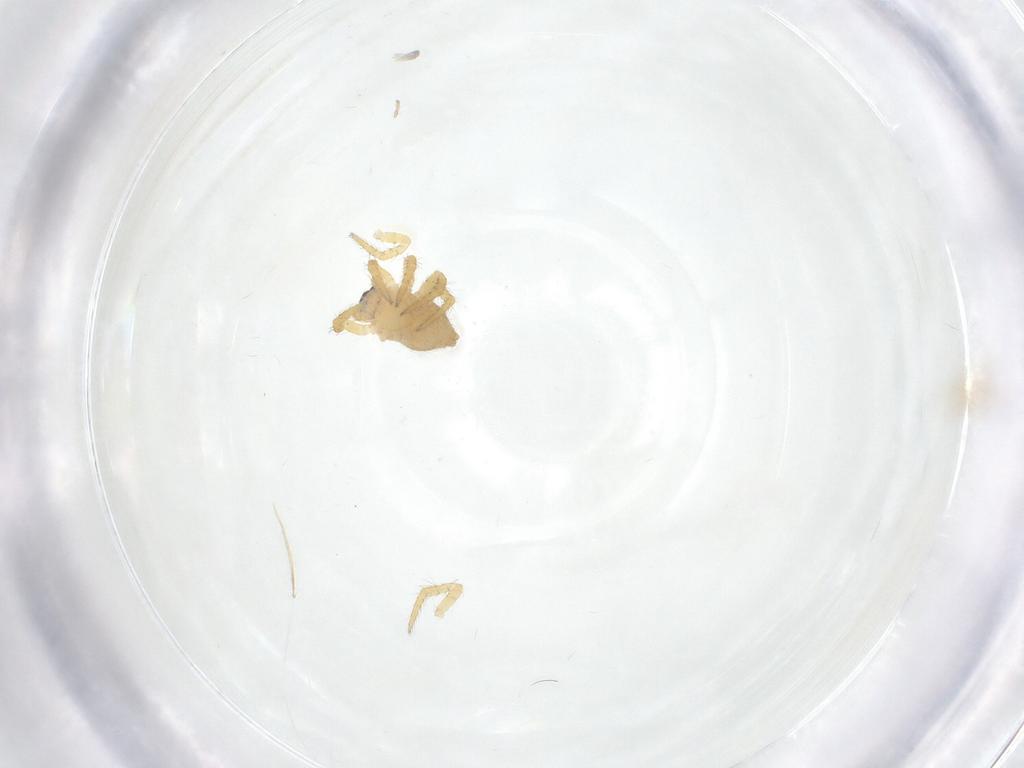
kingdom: Animalia
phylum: Arthropoda
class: Arachnida
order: Araneae
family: Theridiidae
